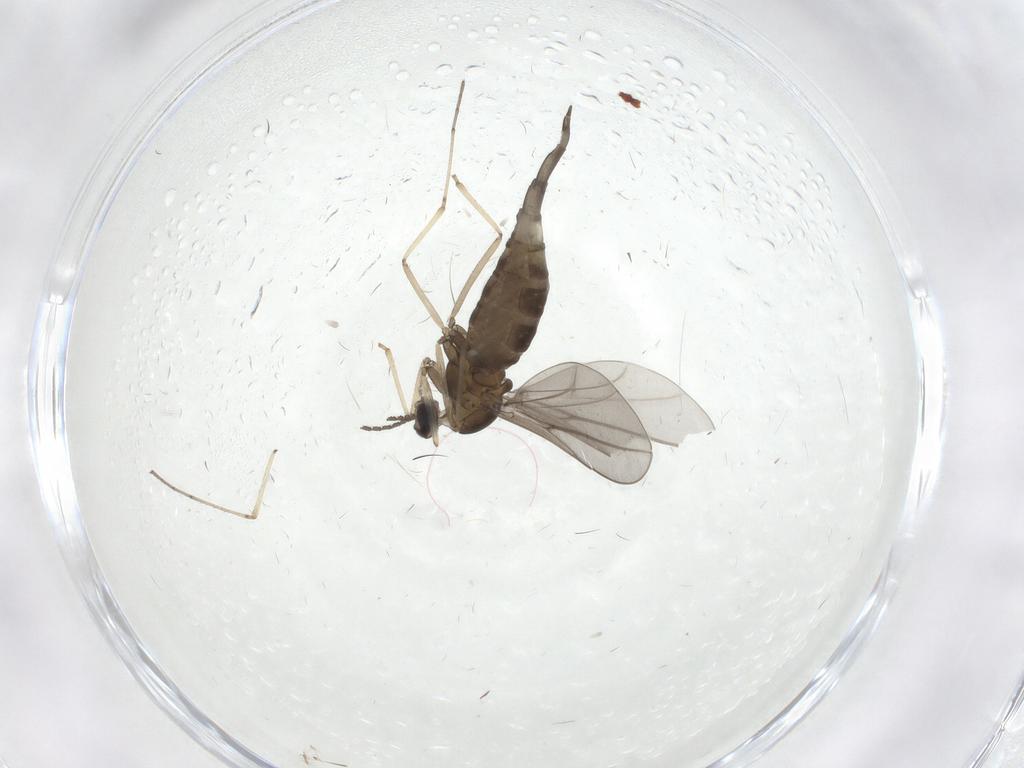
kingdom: Animalia
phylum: Arthropoda
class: Insecta
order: Diptera
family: Cecidomyiidae
